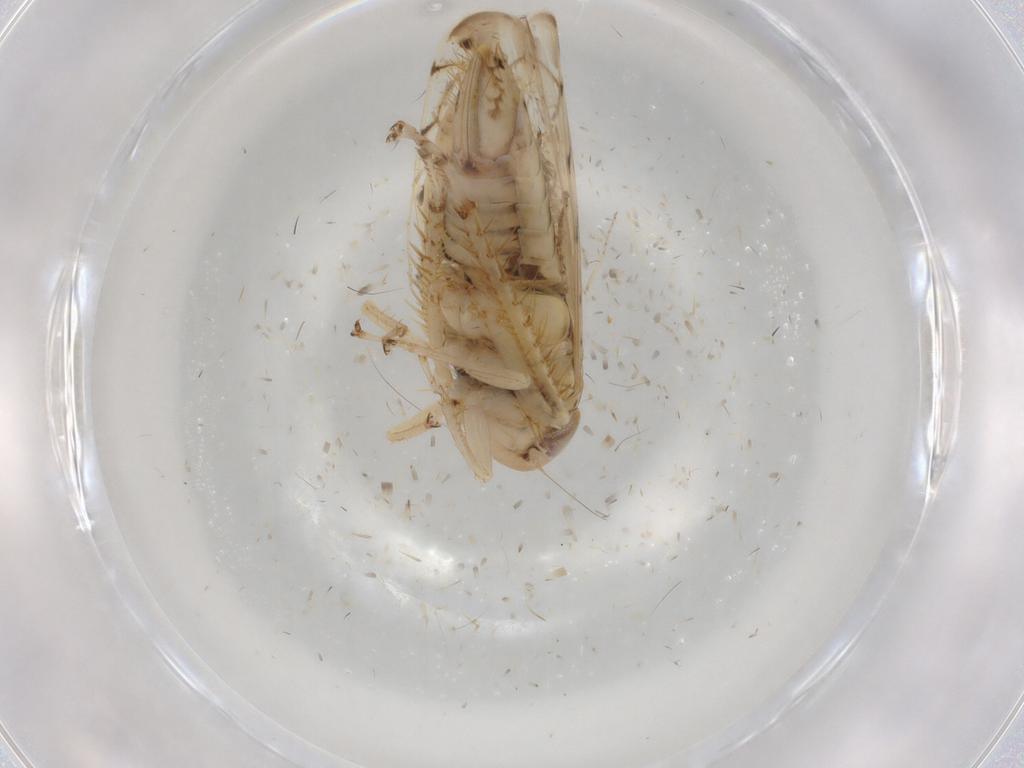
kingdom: Animalia
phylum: Arthropoda
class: Insecta
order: Hemiptera
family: Cicadellidae
